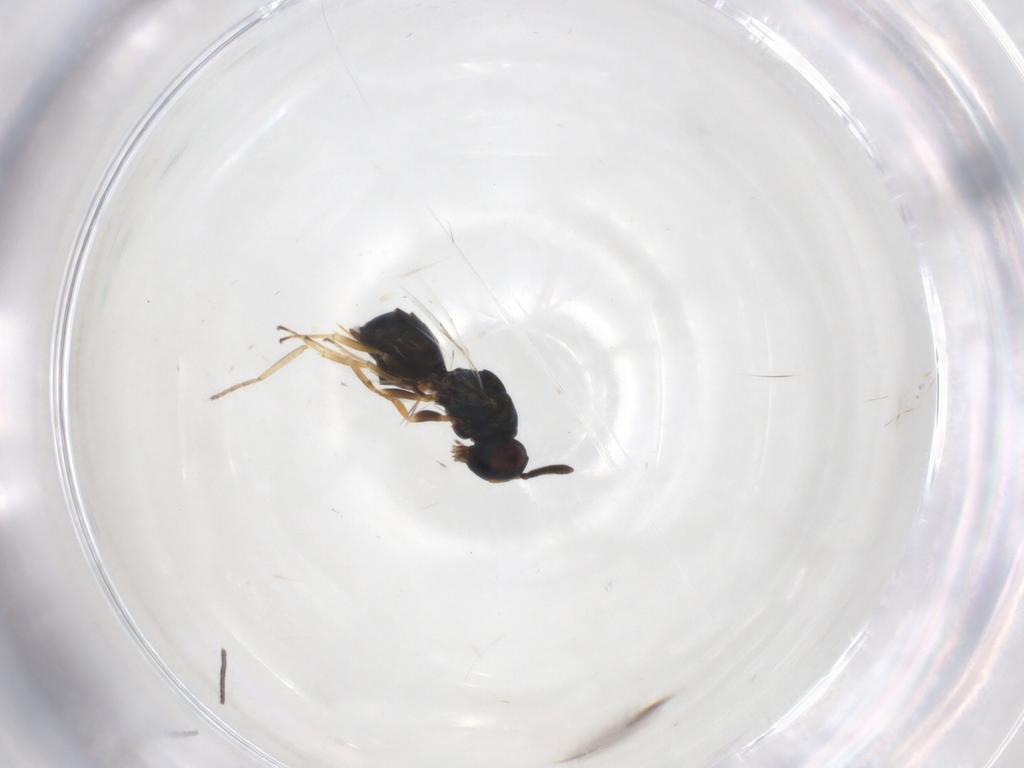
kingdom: Animalia
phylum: Arthropoda
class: Insecta
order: Hymenoptera
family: Pteromalidae
